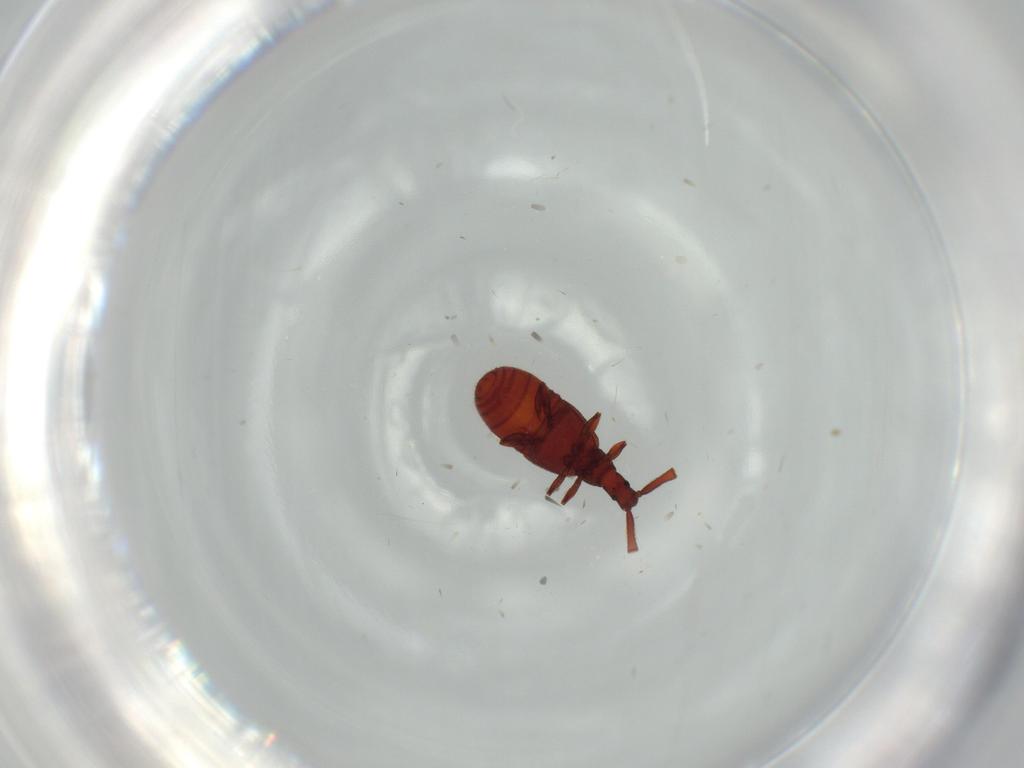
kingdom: Animalia
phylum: Arthropoda
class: Insecta
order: Coleoptera
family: Staphylinidae
